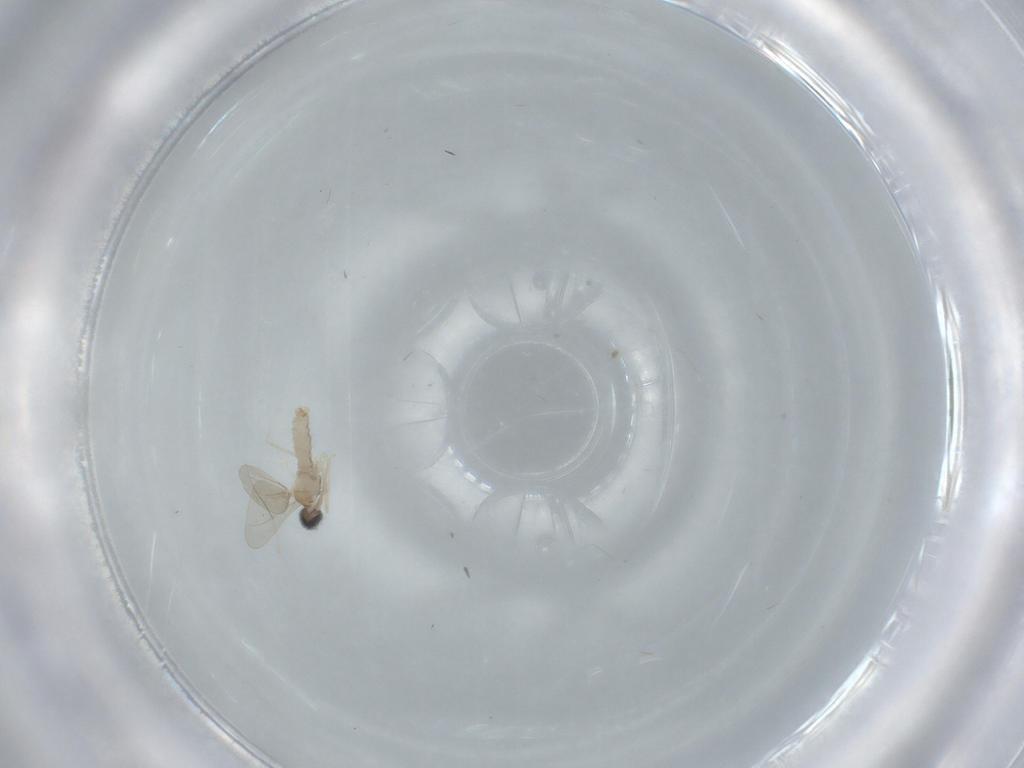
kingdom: Animalia
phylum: Arthropoda
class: Insecta
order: Diptera
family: Cecidomyiidae
